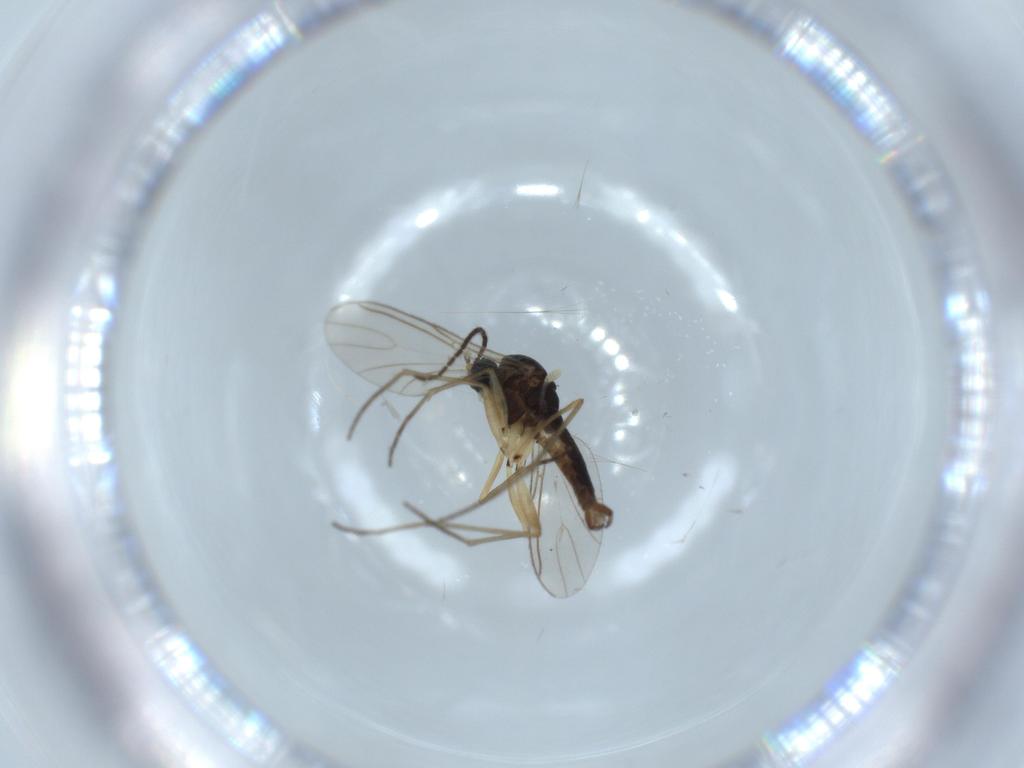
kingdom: Animalia
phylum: Arthropoda
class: Insecta
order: Diptera
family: Sciaridae
